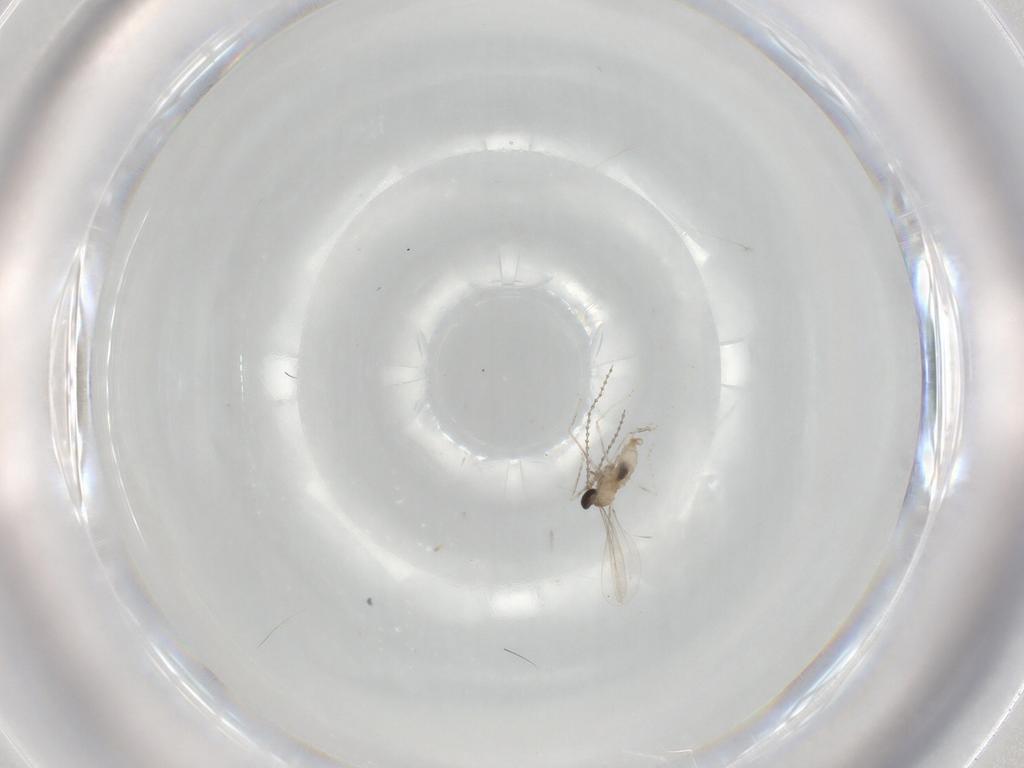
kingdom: Animalia
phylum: Arthropoda
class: Insecta
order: Diptera
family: Cecidomyiidae
